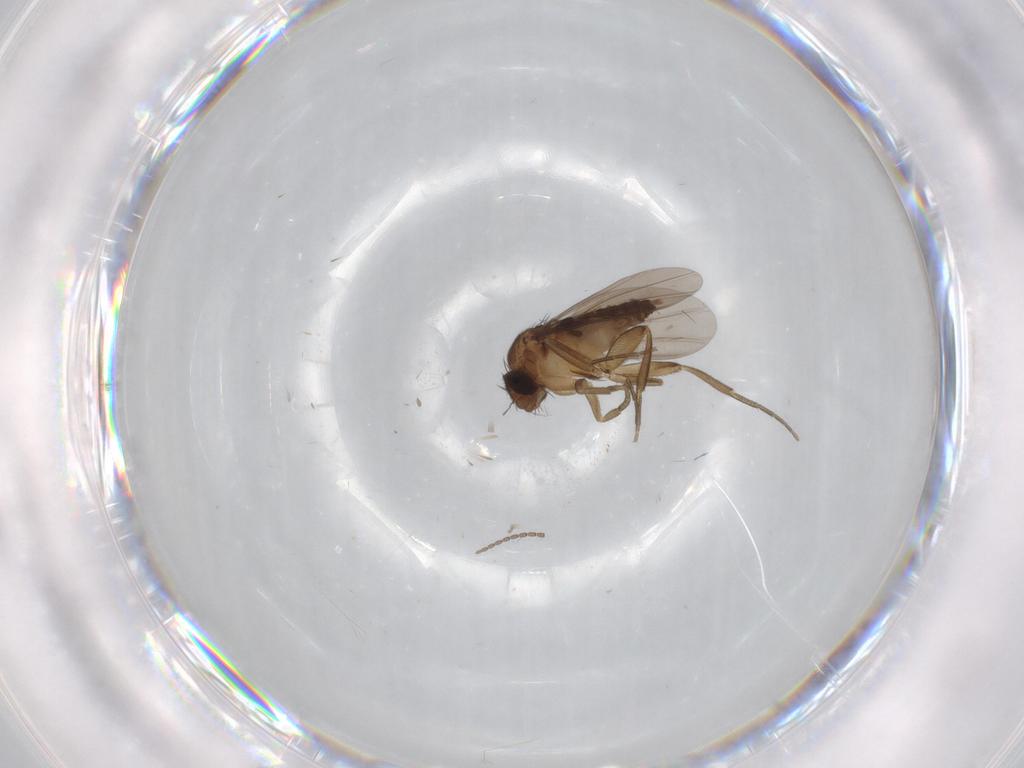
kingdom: Animalia
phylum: Arthropoda
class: Insecta
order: Diptera
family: Cecidomyiidae
